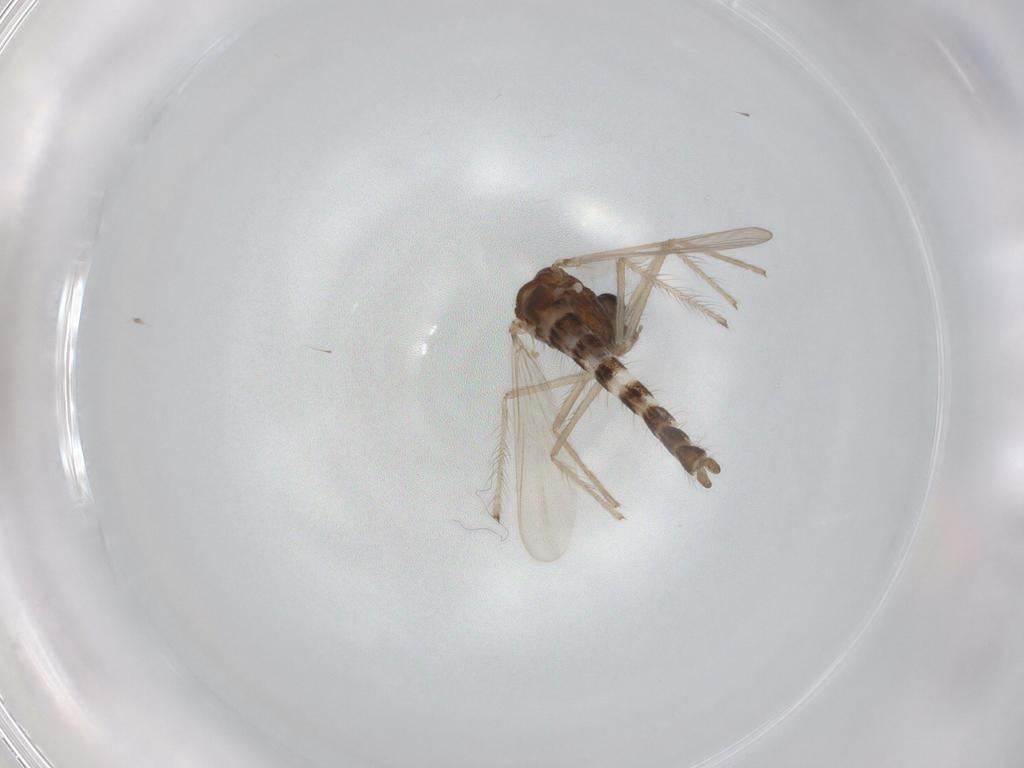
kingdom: Animalia
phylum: Arthropoda
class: Insecta
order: Diptera
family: Chironomidae
